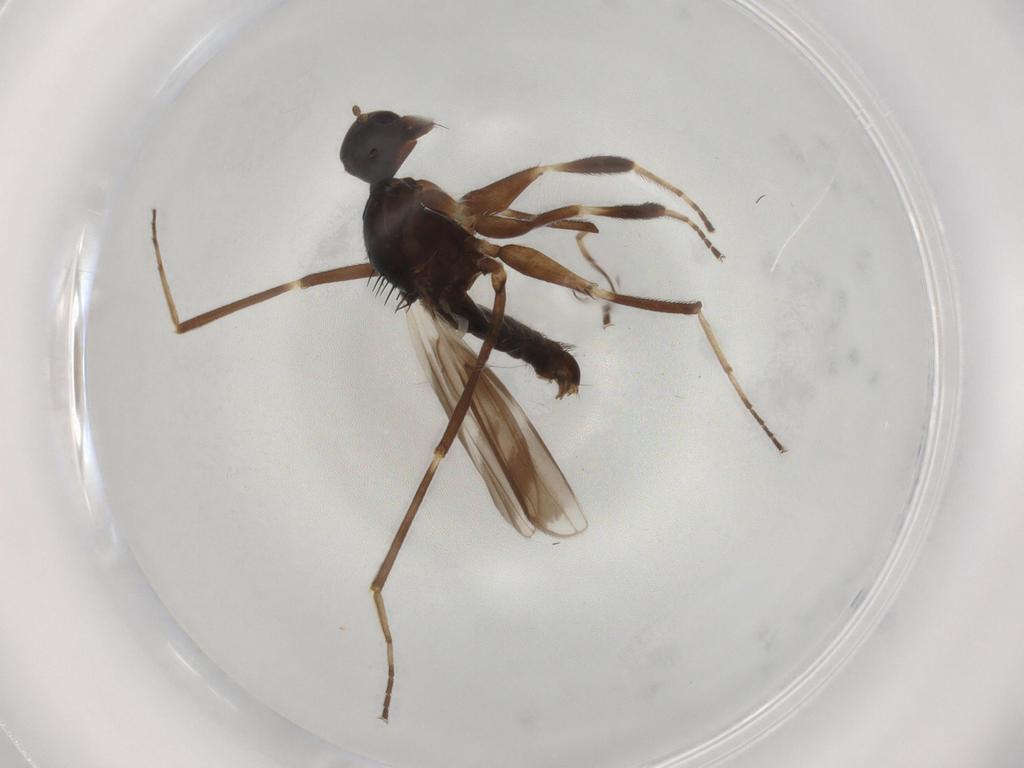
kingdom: Animalia
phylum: Arthropoda
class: Insecta
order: Diptera
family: Hybotidae
